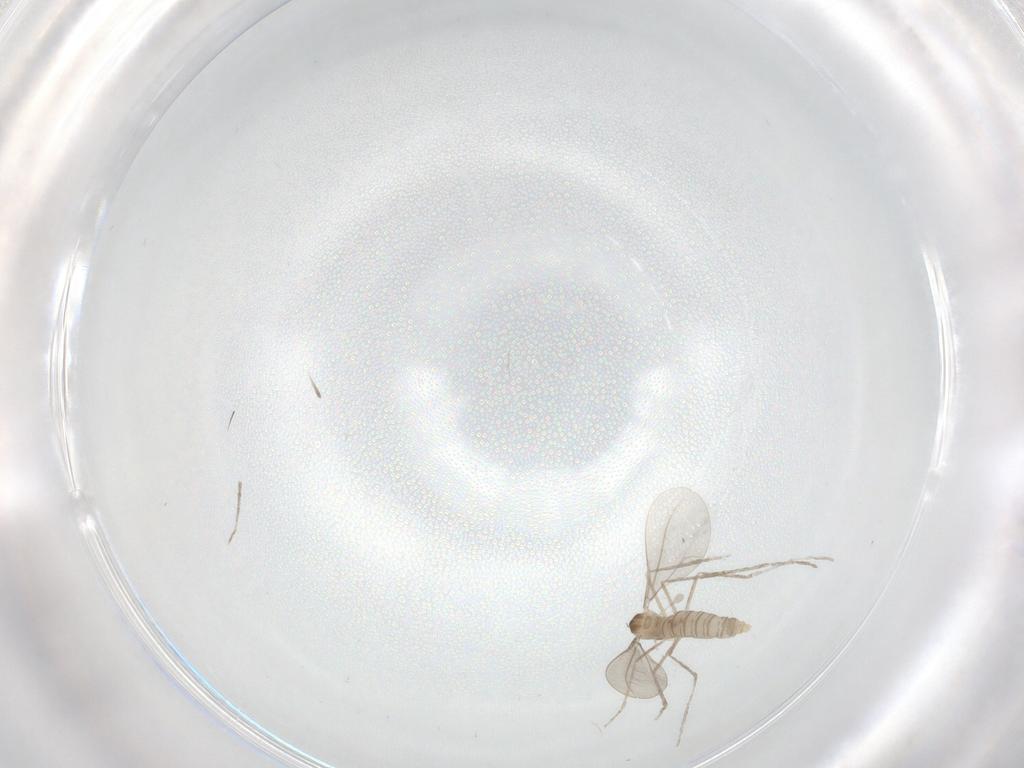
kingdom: Animalia
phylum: Arthropoda
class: Insecta
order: Diptera
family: Cecidomyiidae
